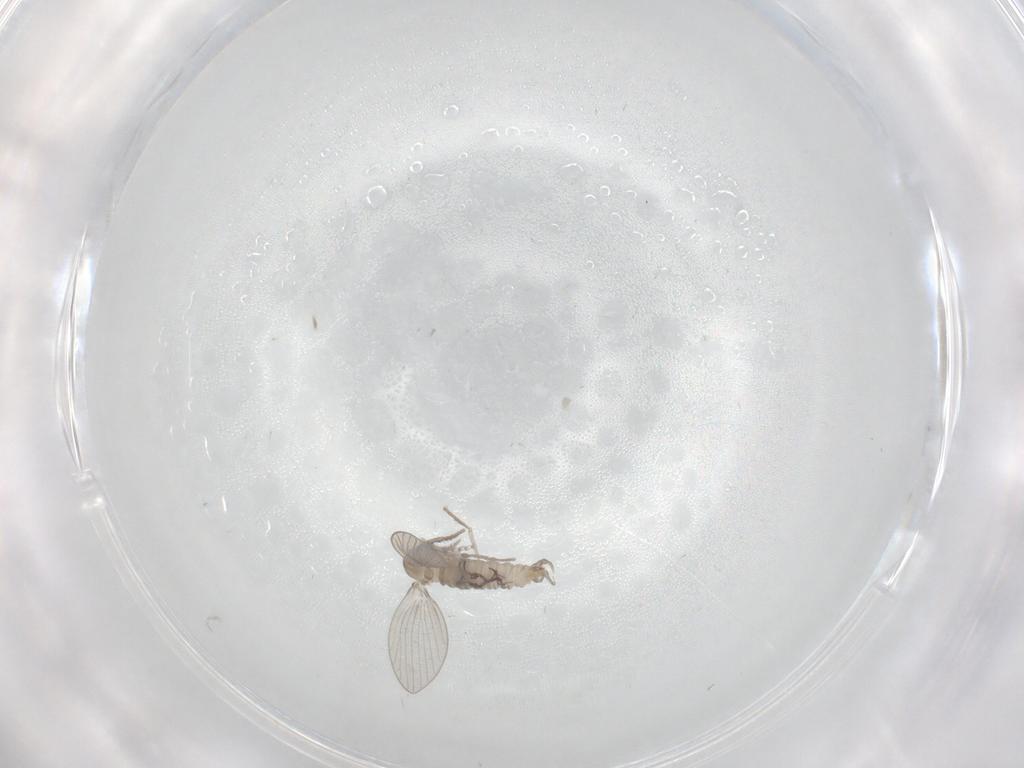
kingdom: Animalia
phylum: Arthropoda
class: Insecta
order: Diptera
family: Psychodidae
